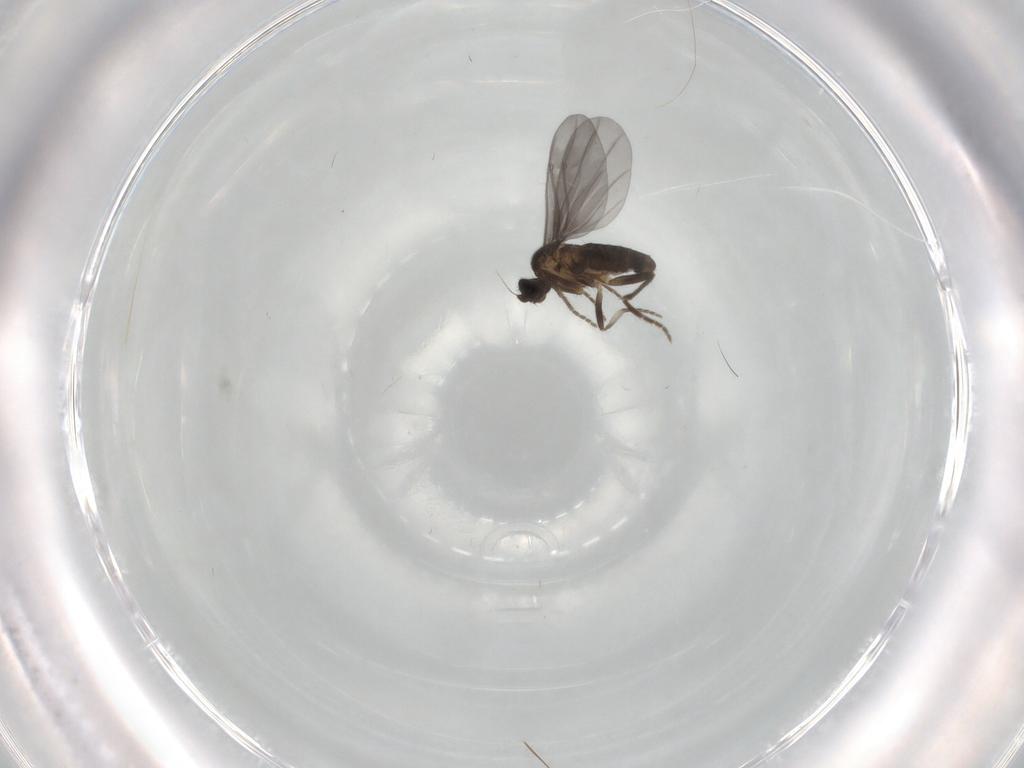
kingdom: Animalia
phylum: Arthropoda
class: Insecta
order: Diptera
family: Phoridae
